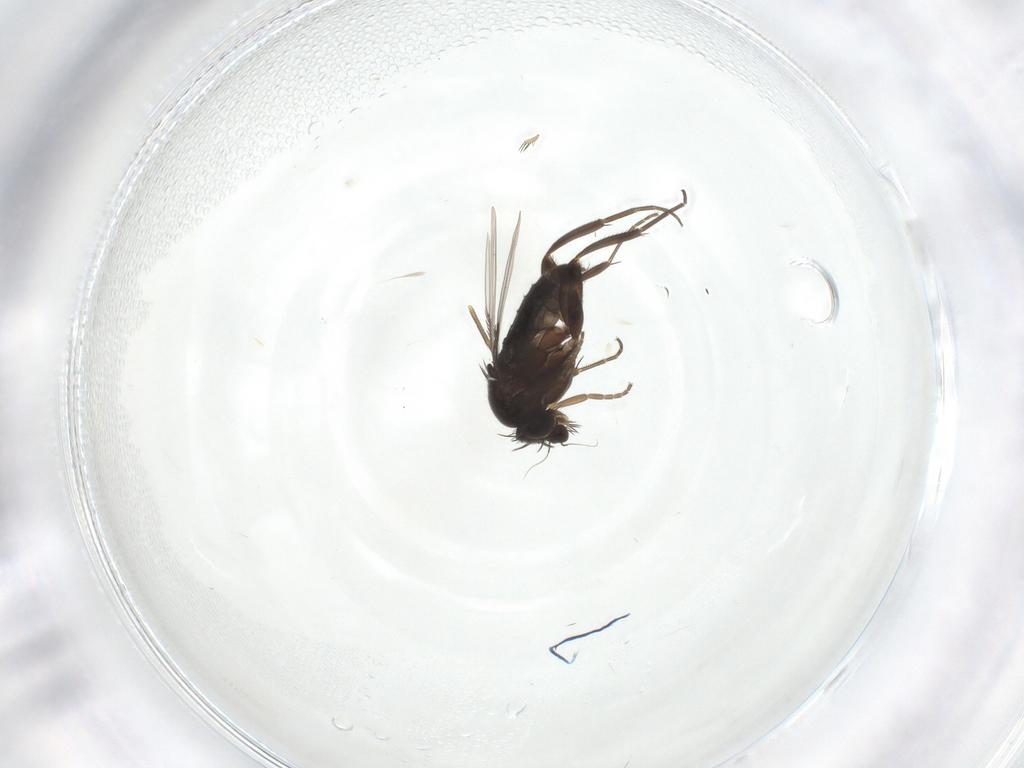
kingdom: Animalia
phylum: Arthropoda
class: Insecta
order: Diptera
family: Mycetophilidae
